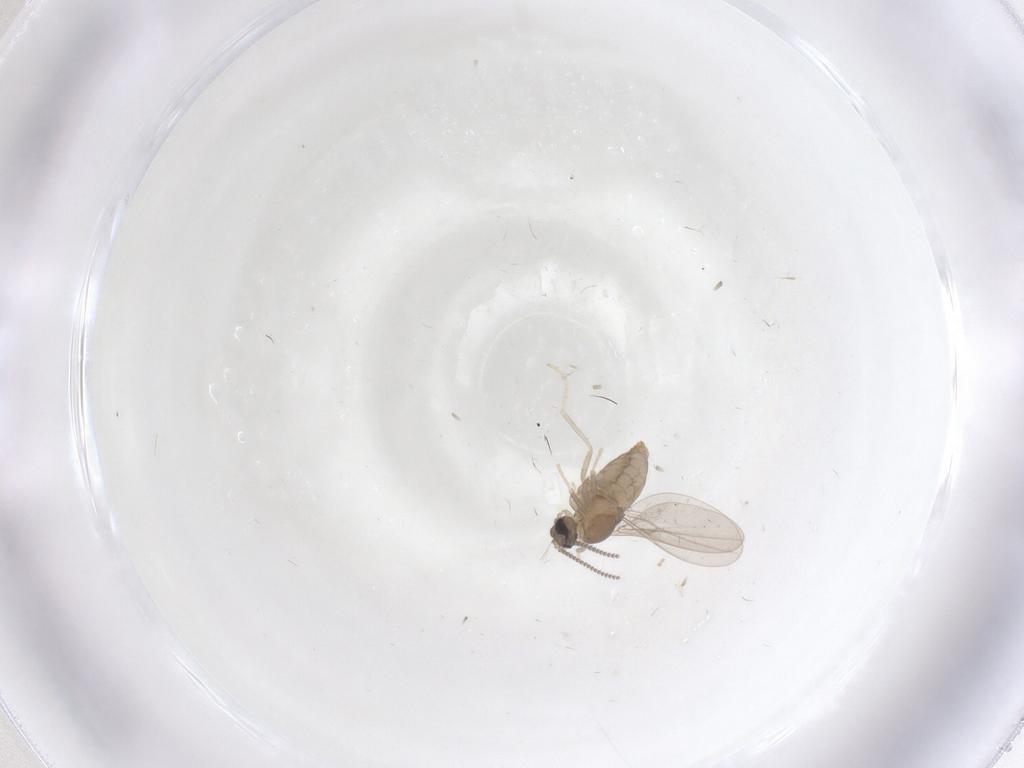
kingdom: Animalia
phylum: Arthropoda
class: Insecta
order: Diptera
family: Cecidomyiidae
